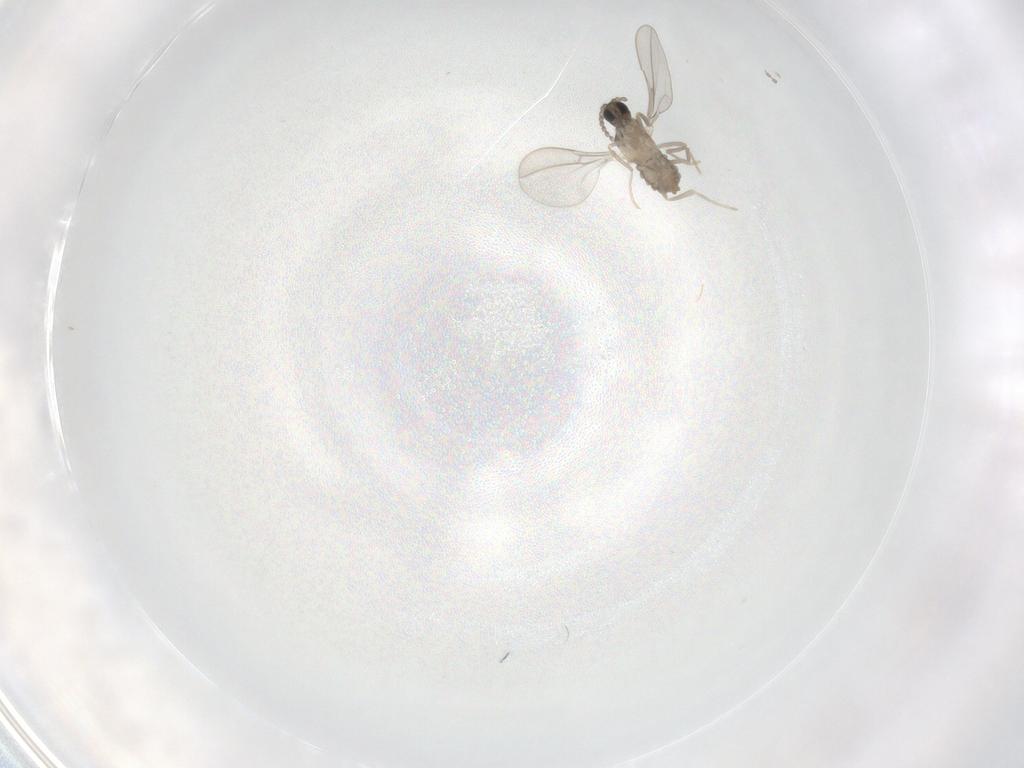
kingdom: Animalia
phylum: Arthropoda
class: Insecta
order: Diptera
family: Cecidomyiidae
